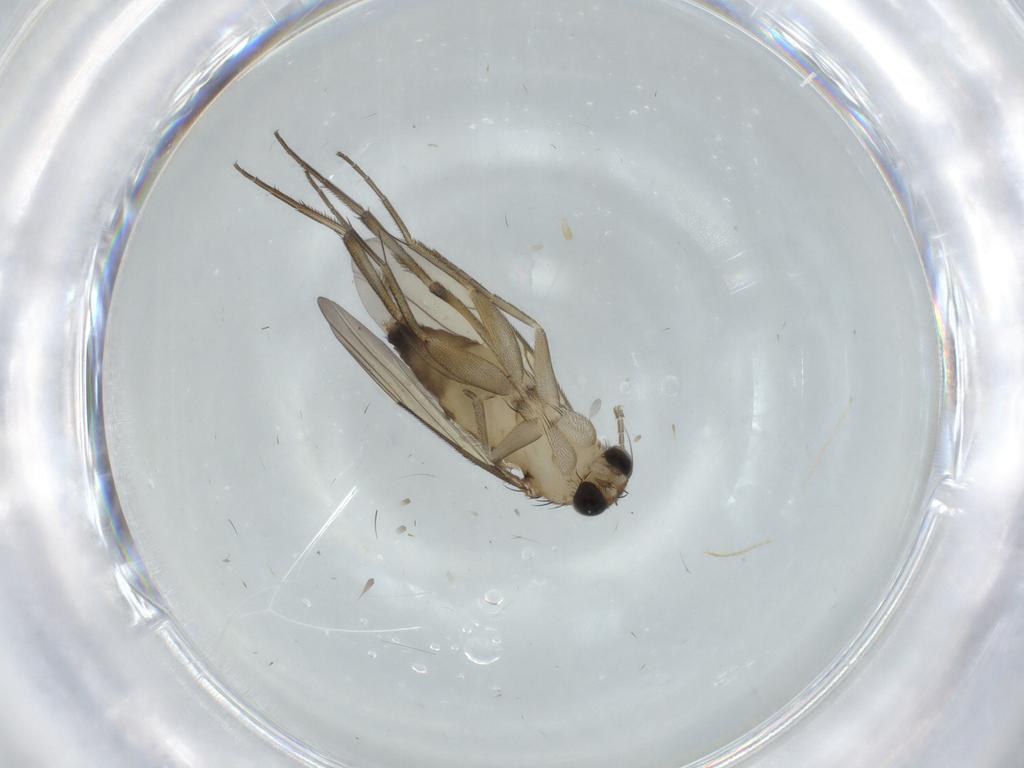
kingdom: Animalia
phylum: Arthropoda
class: Insecta
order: Diptera
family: Phoridae
